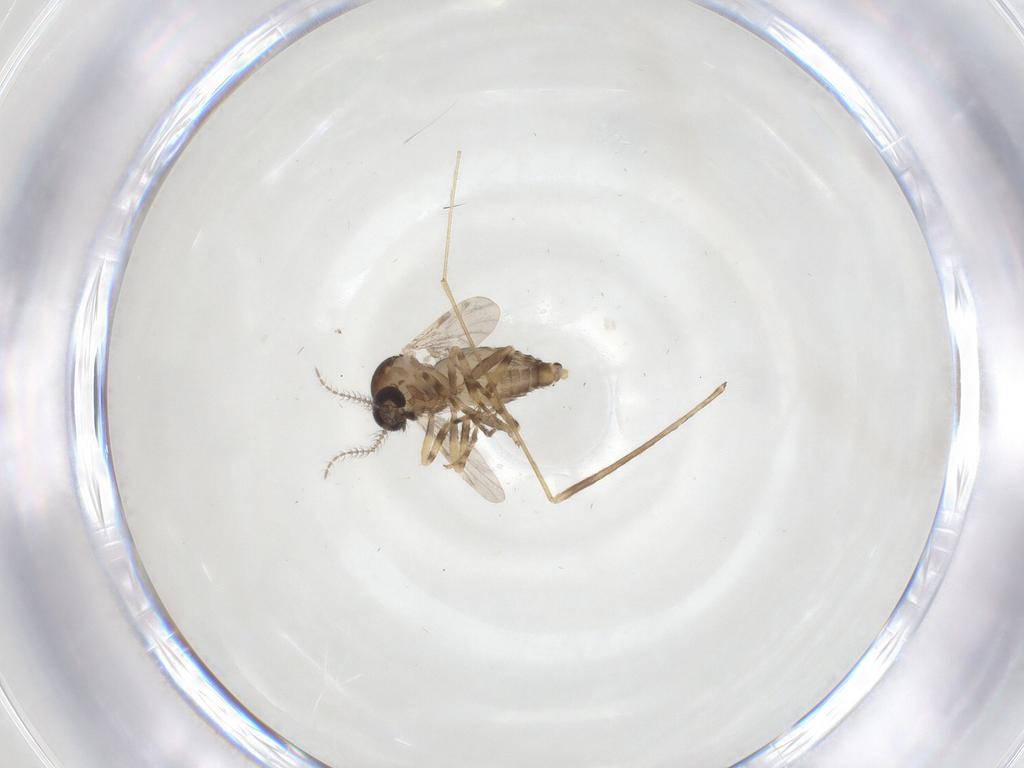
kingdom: Animalia
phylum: Arthropoda
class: Insecta
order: Diptera
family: Ceratopogonidae
